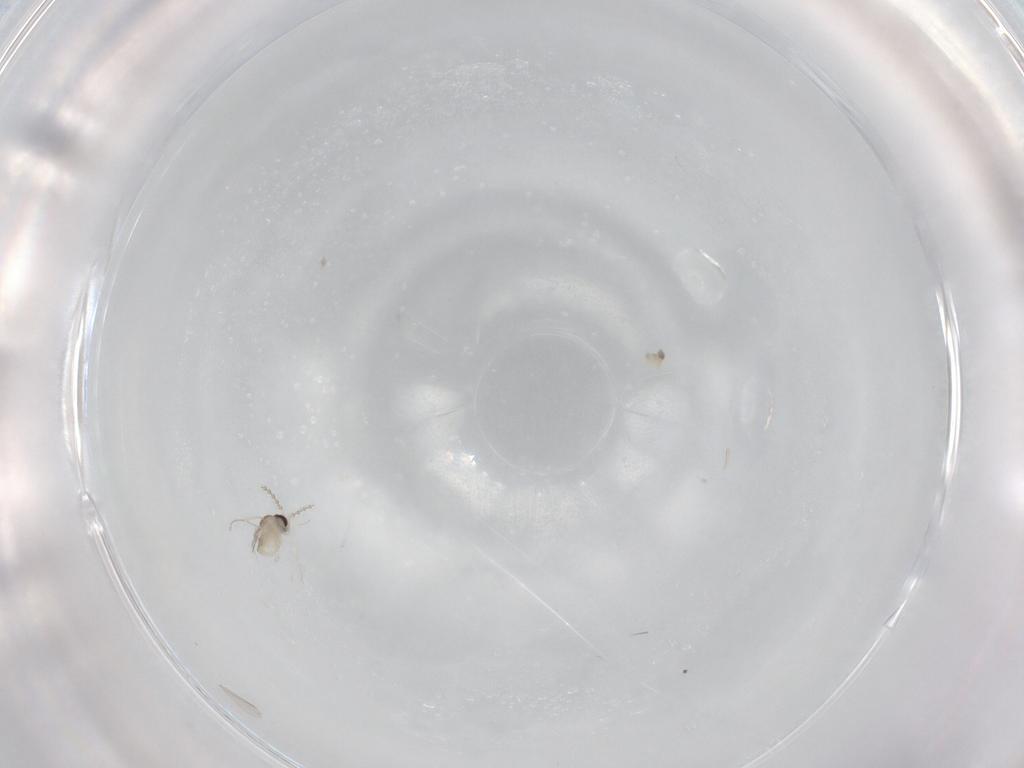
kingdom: Animalia
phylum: Arthropoda
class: Insecta
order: Diptera
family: Cecidomyiidae
